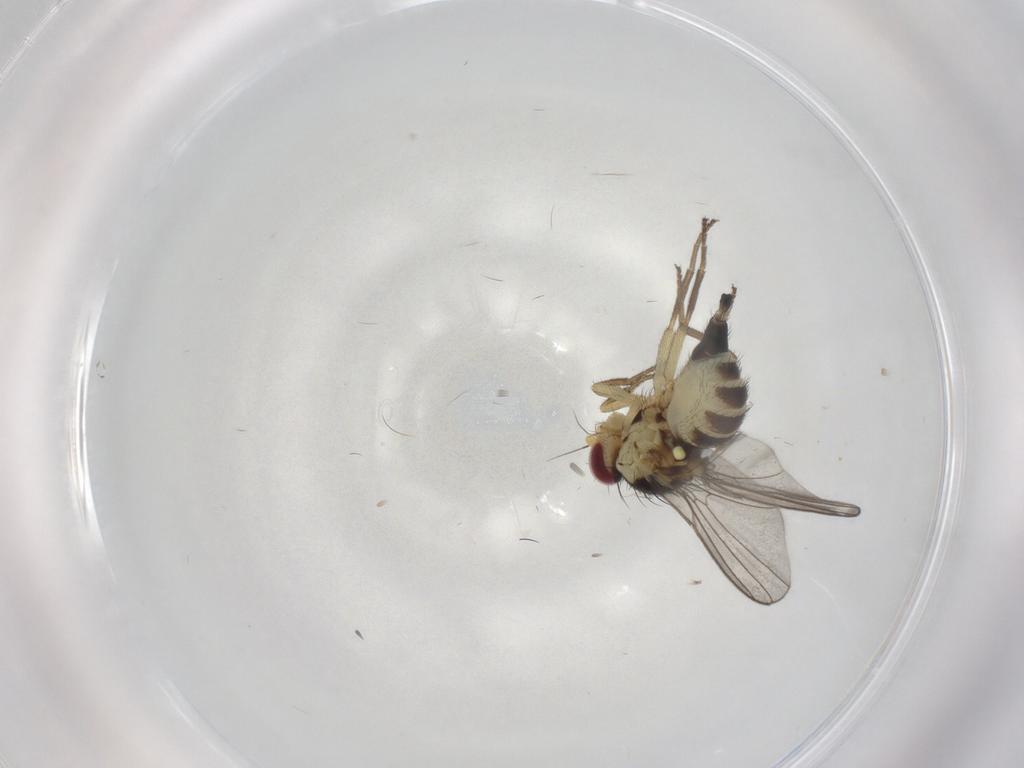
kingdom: Animalia
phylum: Arthropoda
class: Insecta
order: Diptera
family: Agromyzidae
